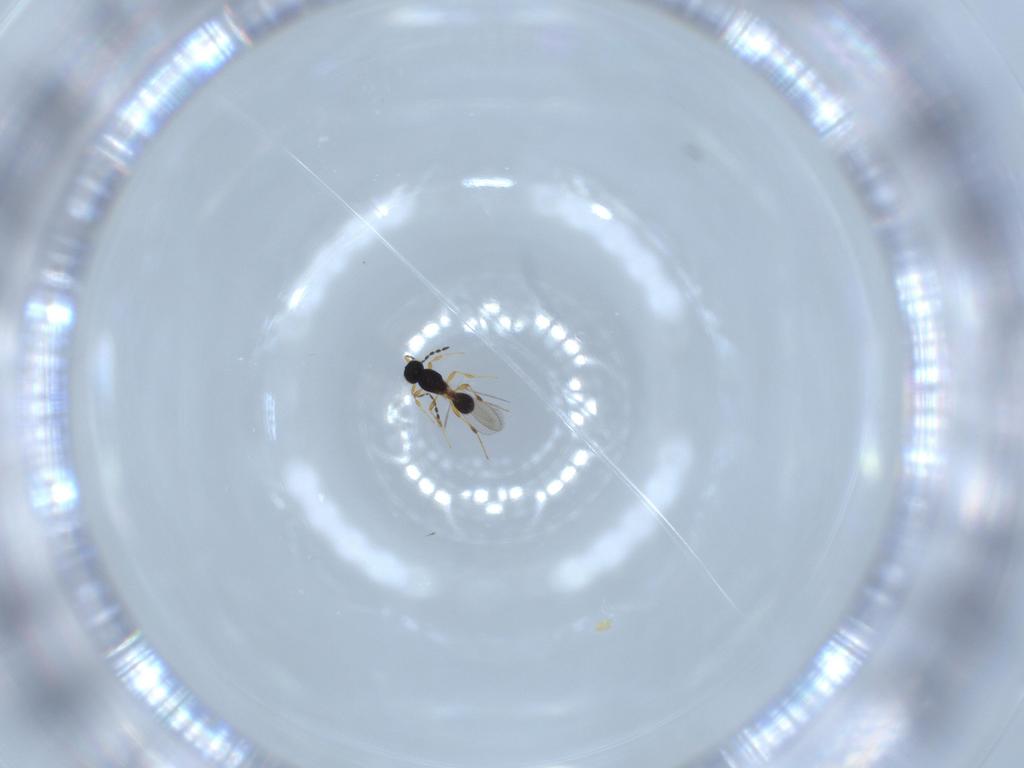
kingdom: Animalia
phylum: Arthropoda
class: Insecta
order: Hymenoptera
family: Platygastridae
